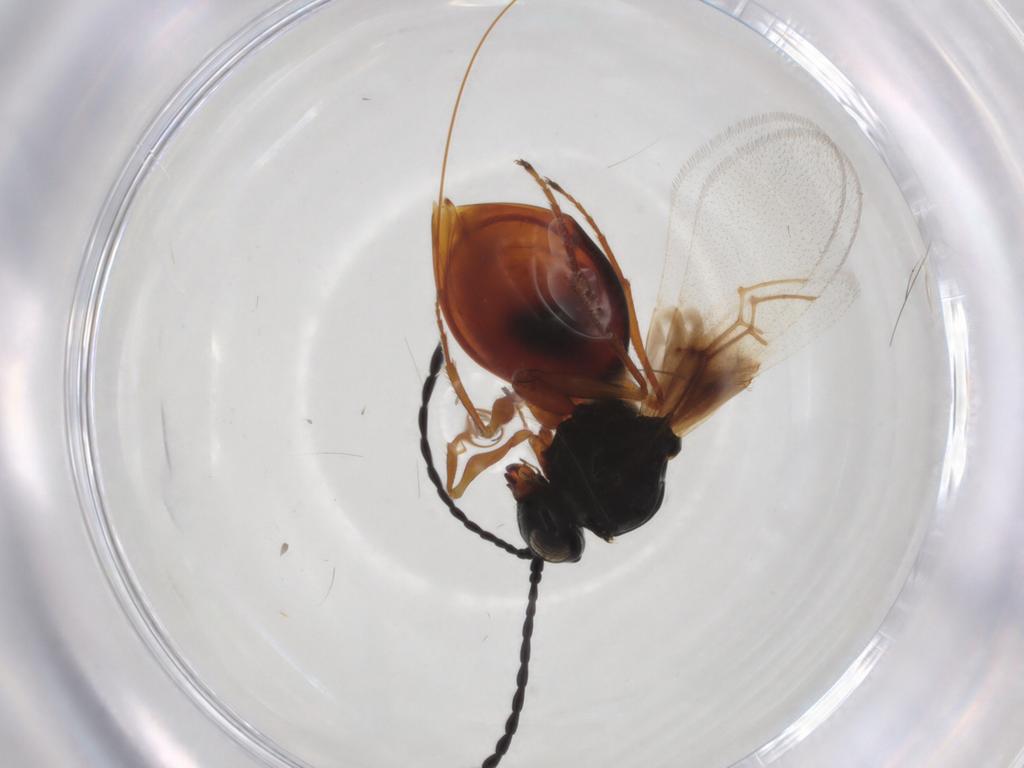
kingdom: Animalia
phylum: Arthropoda
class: Insecta
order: Hymenoptera
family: Figitidae
